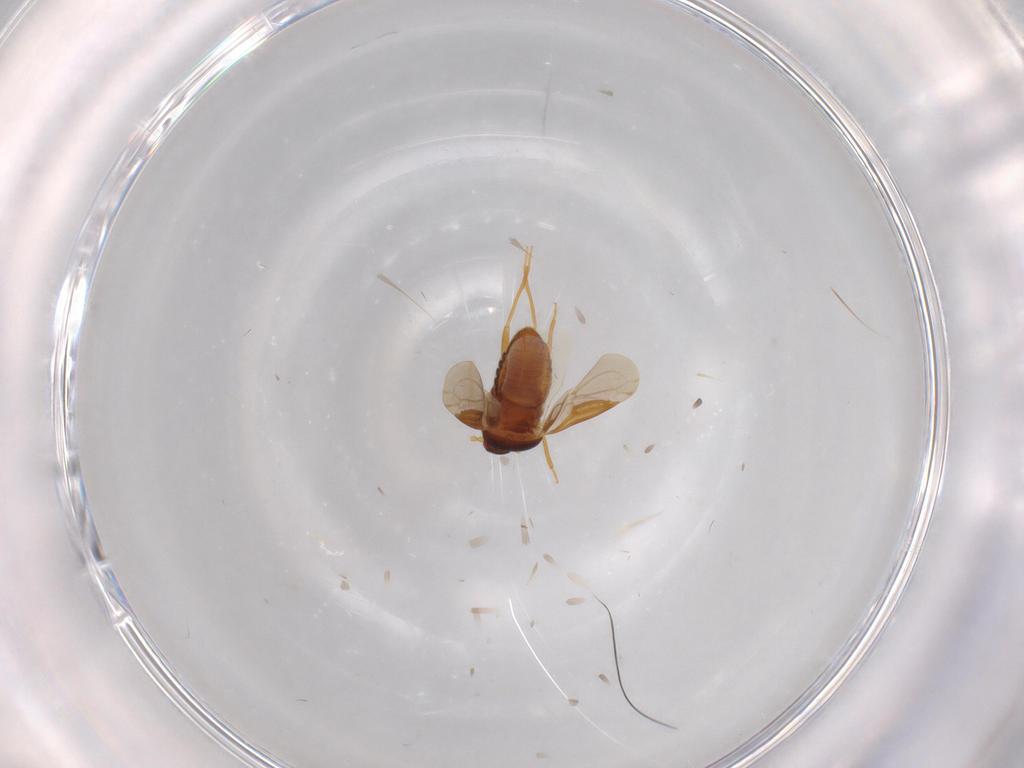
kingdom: Animalia
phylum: Arthropoda
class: Insecta
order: Hemiptera
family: Schizopteridae
